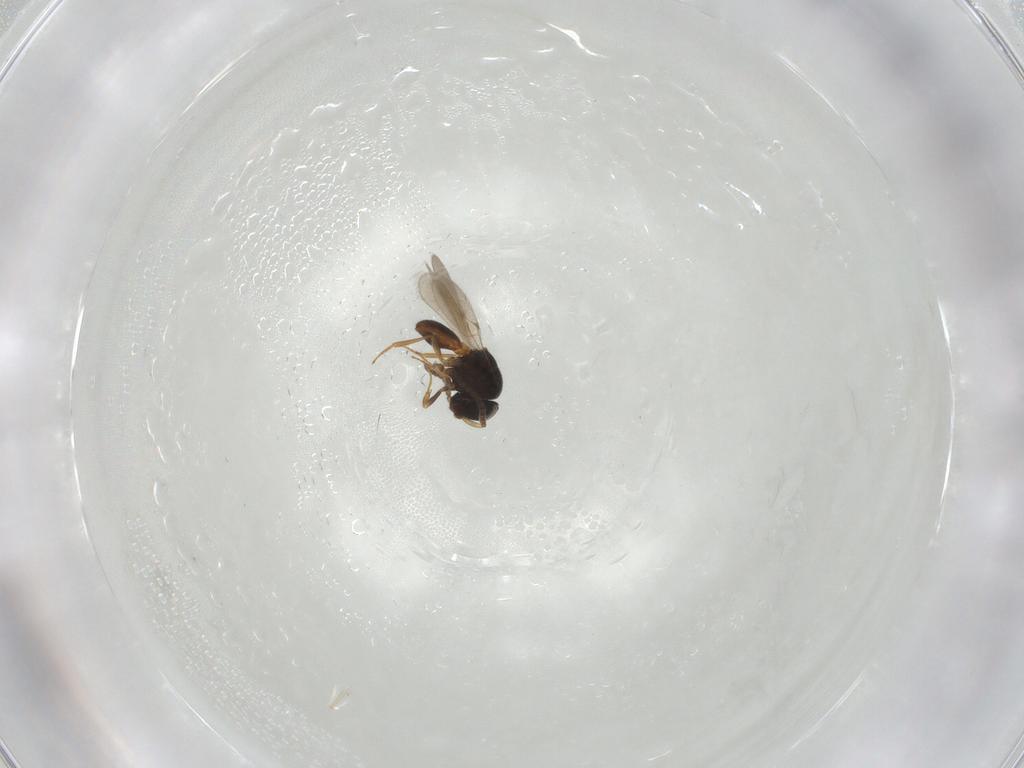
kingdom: Animalia
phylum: Arthropoda
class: Insecta
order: Hymenoptera
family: Scelionidae
